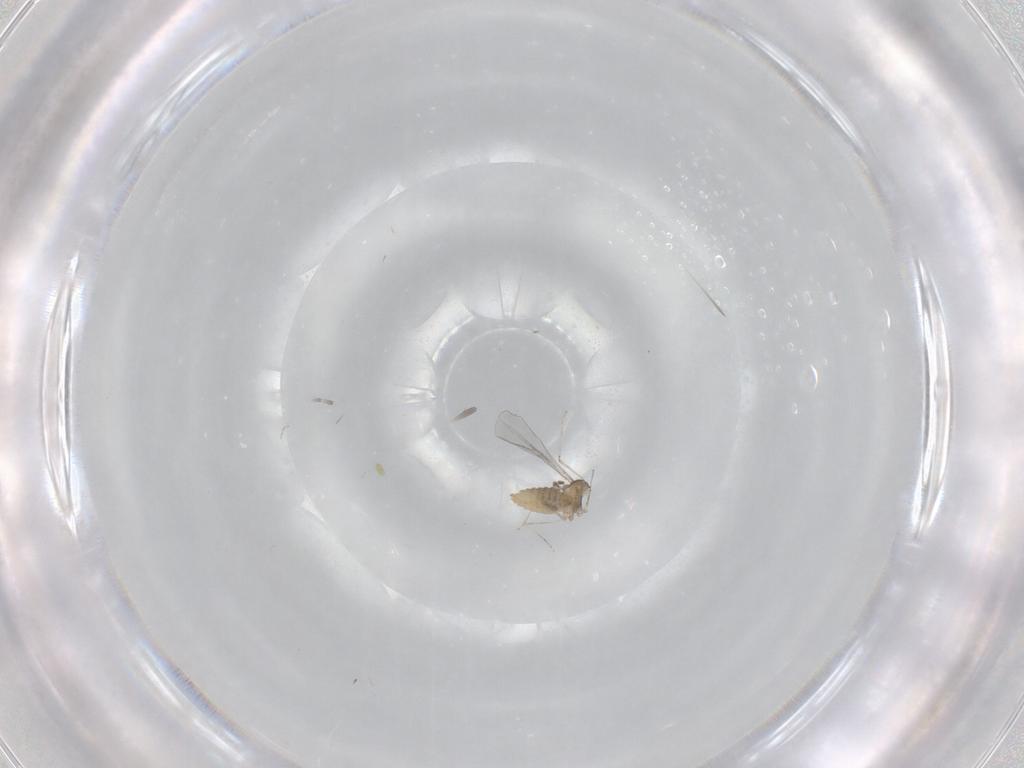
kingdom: Animalia
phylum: Arthropoda
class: Insecta
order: Diptera
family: Cecidomyiidae
